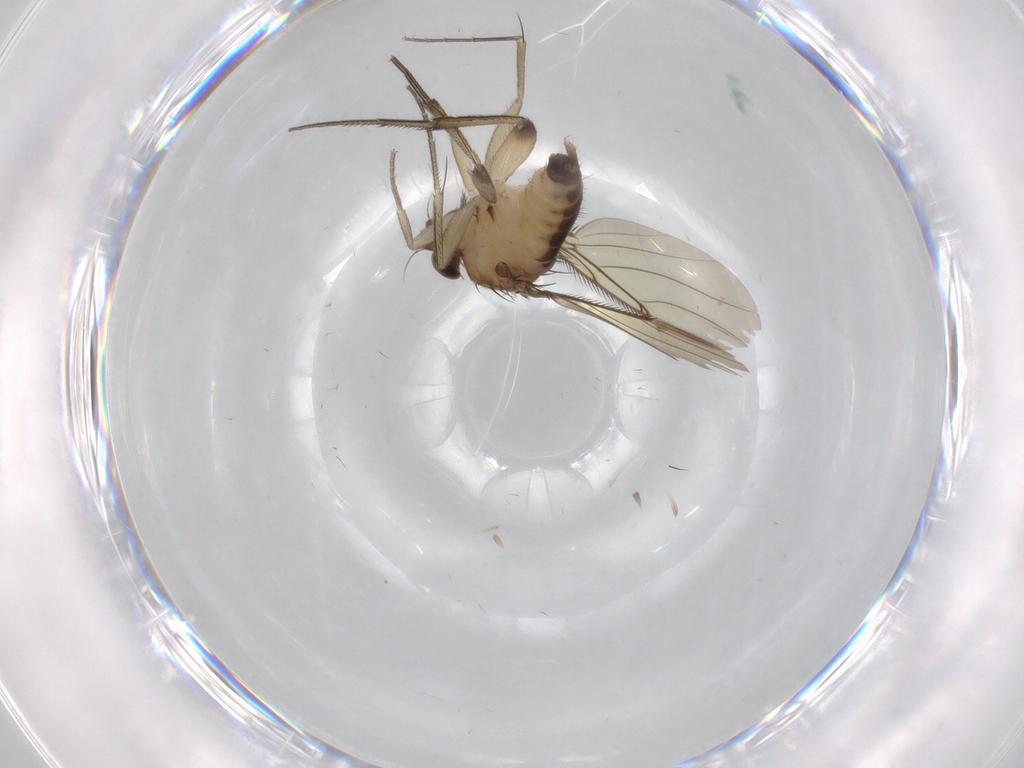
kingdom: Animalia
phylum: Arthropoda
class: Insecta
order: Diptera
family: Phoridae
